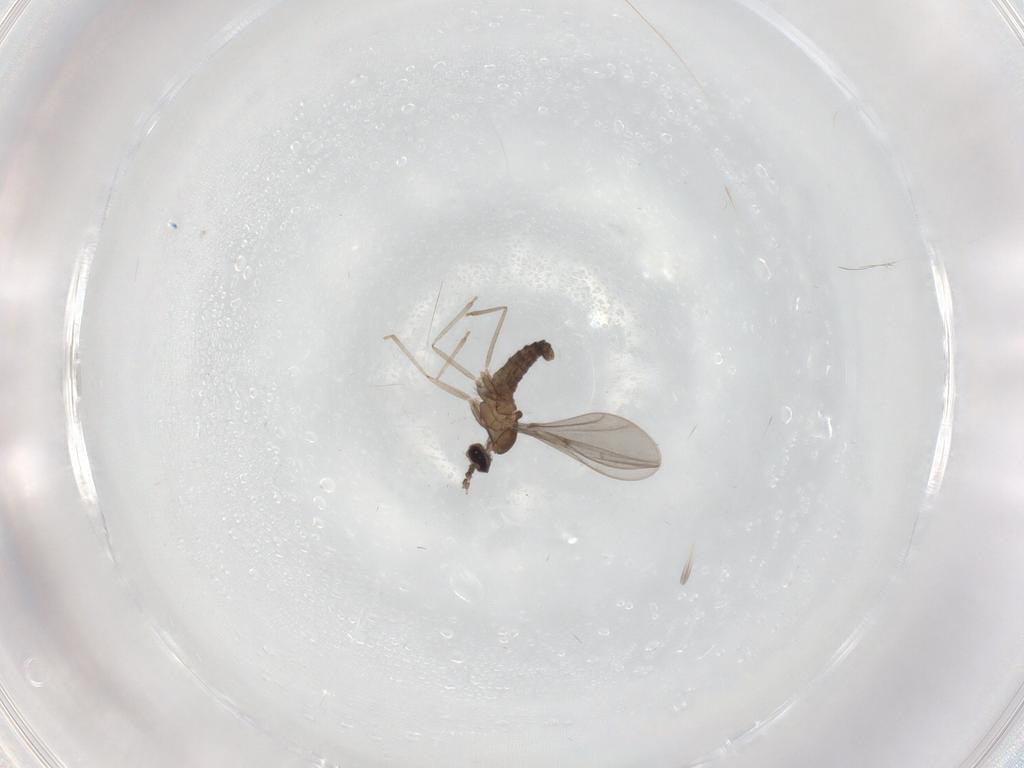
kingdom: Animalia
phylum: Arthropoda
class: Insecta
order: Diptera
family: Cecidomyiidae
